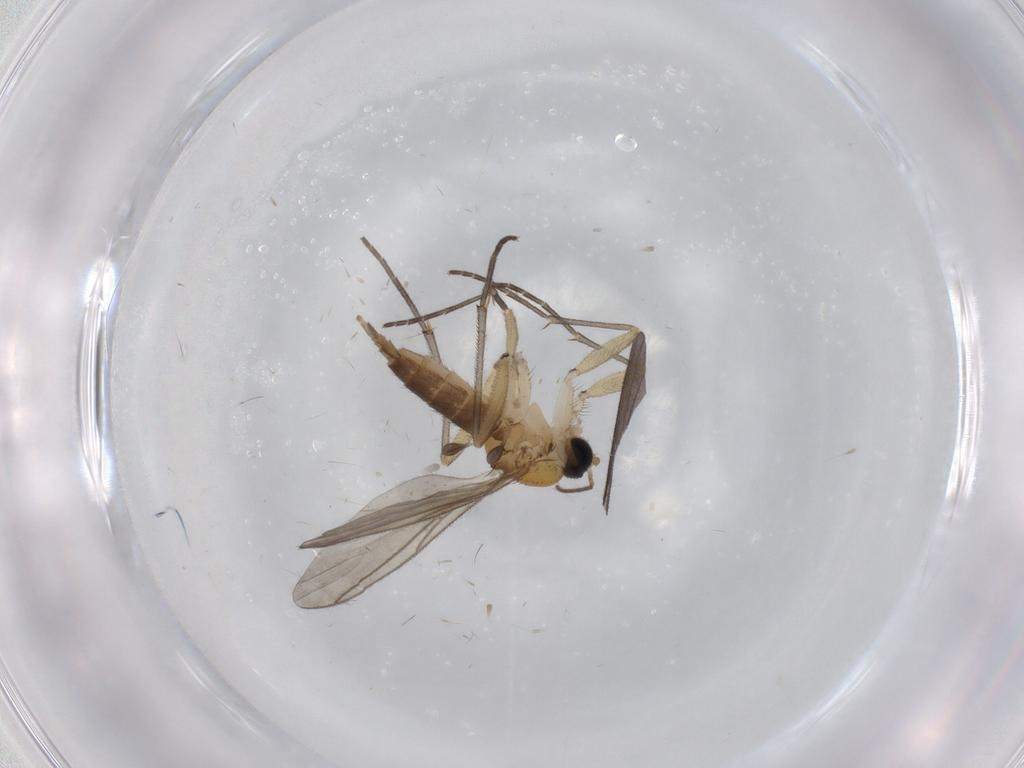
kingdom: Animalia
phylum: Arthropoda
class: Insecta
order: Diptera
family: Sciaridae
